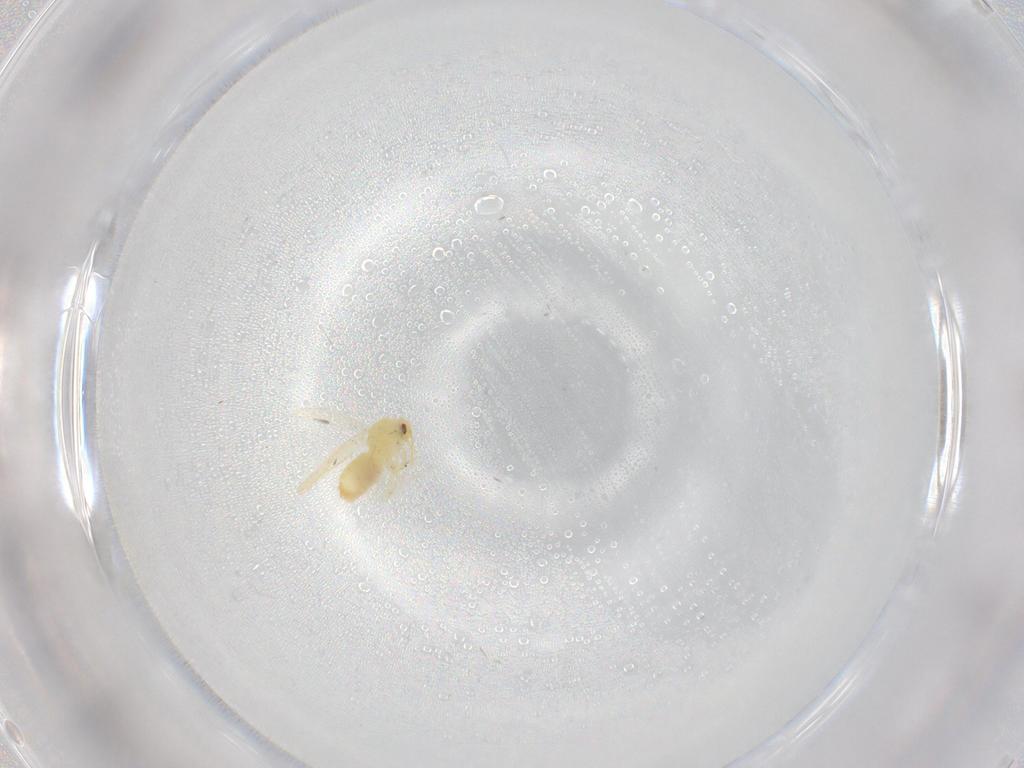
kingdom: Animalia
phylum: Arthropoda
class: Insecta
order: Diptera
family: Cecidomyiidae
